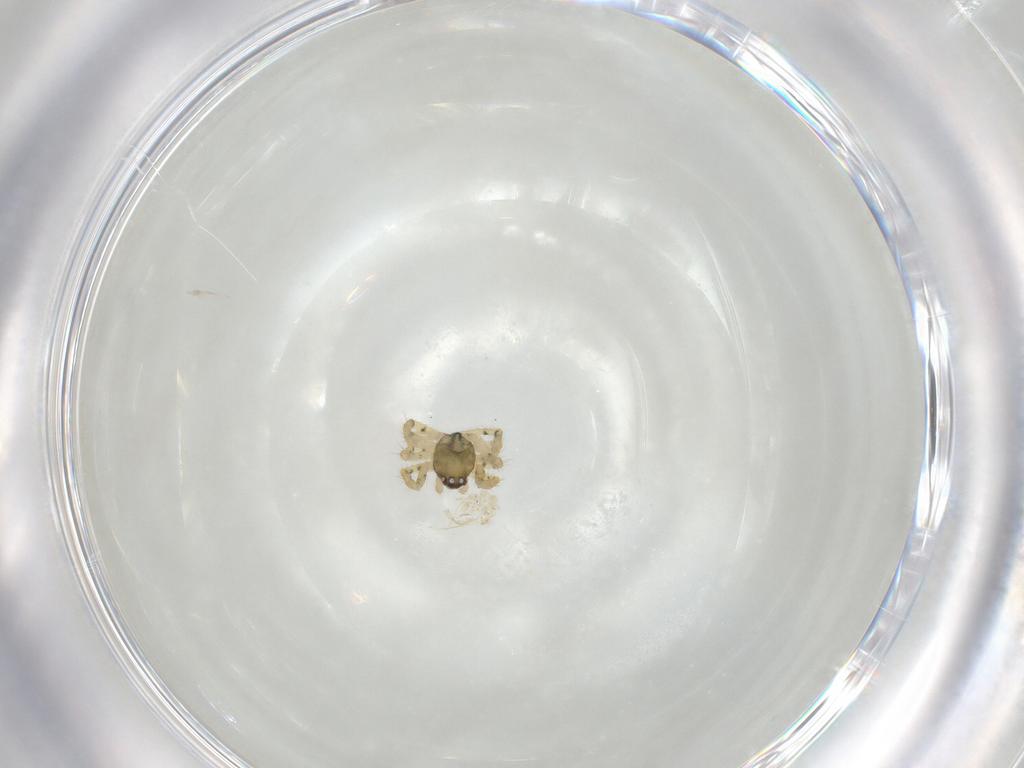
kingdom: Animalia
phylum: Arthropoda
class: Arachnida
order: Araneae
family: Theridiidae
